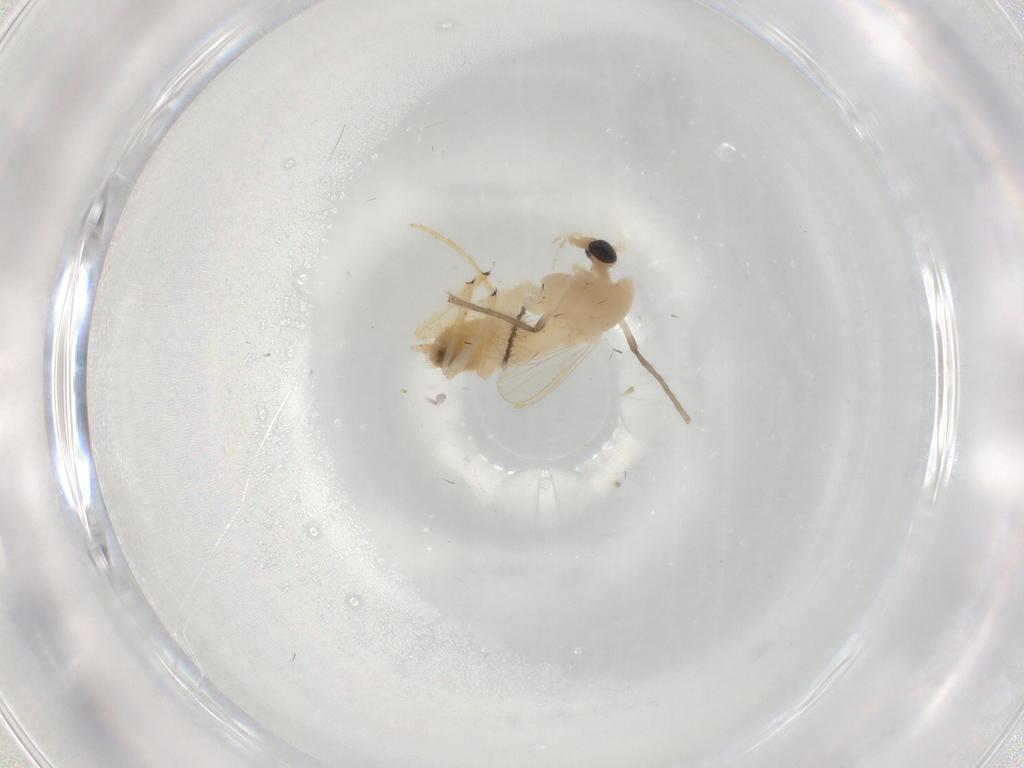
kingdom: Animalia
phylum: Arthropoda
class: Insecta
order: Diptera
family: Chironomidae
